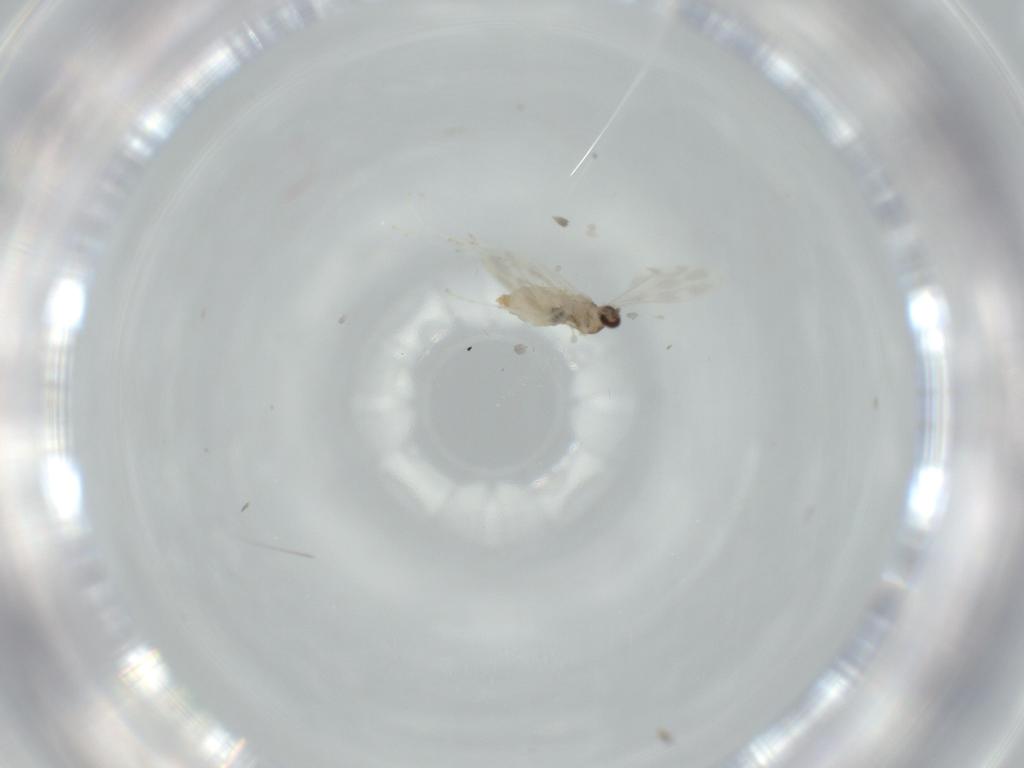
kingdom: Animalia
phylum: Arthropoda
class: Insecta
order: Diptera
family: Cecidomyiidae
